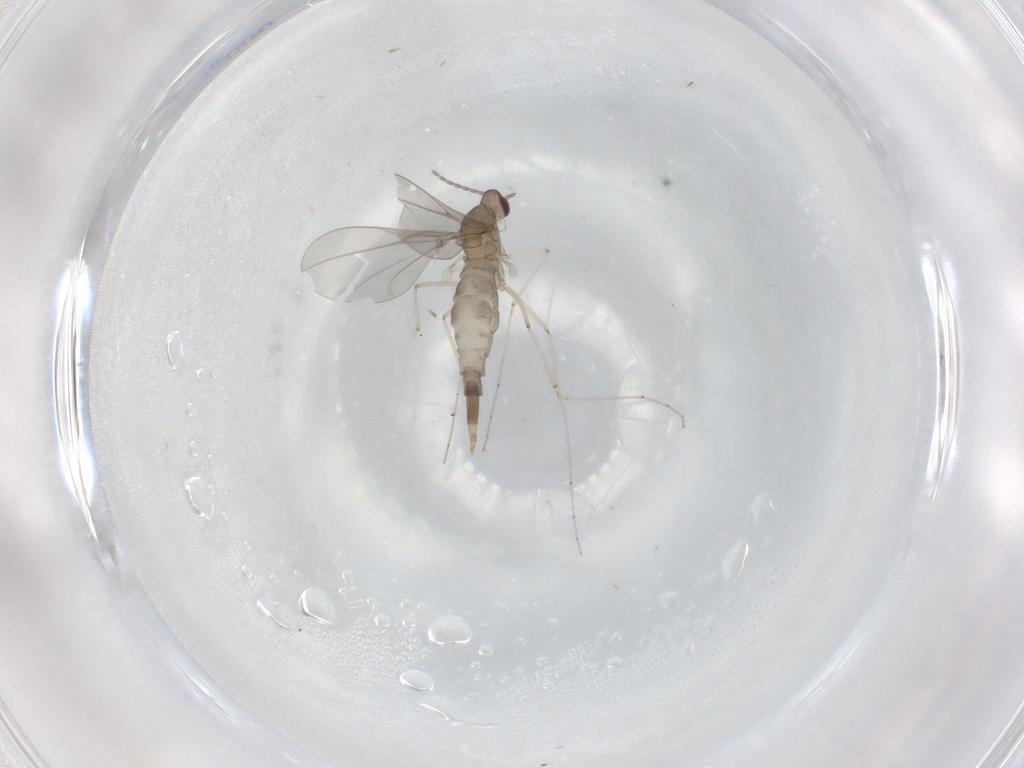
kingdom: Animalia
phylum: Arthropoda
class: Insecta
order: Diptera
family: Cecidomyiidae
